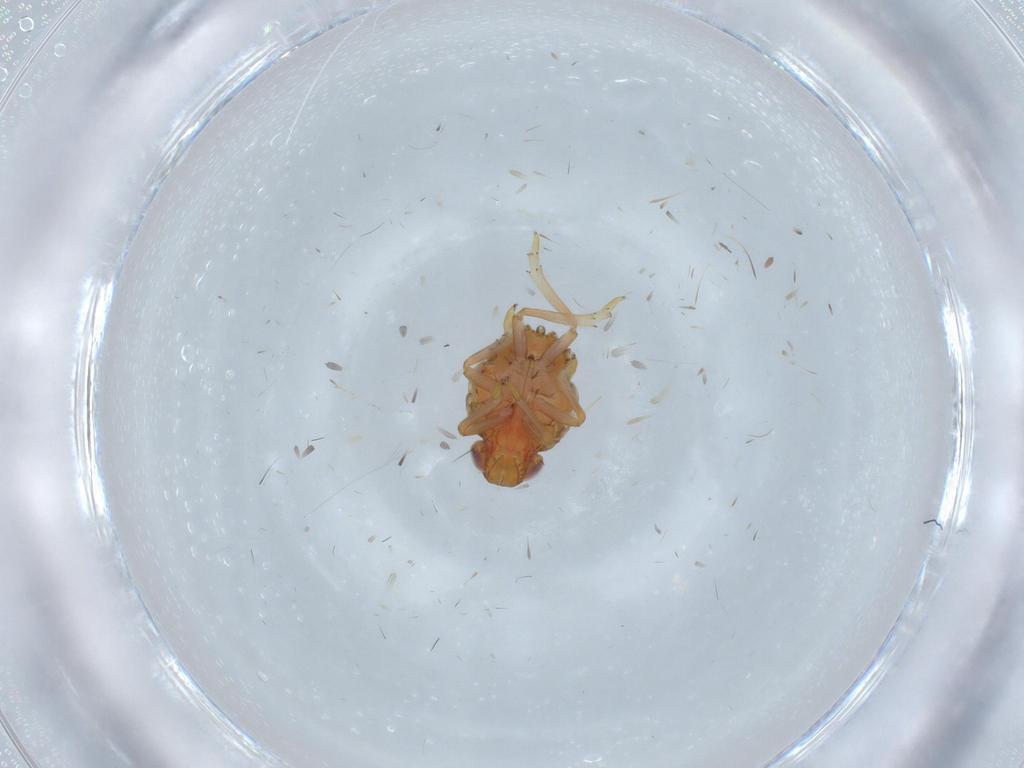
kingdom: Animalia
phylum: Arthropoda
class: Insecta
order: Hemiptera
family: Issidae
